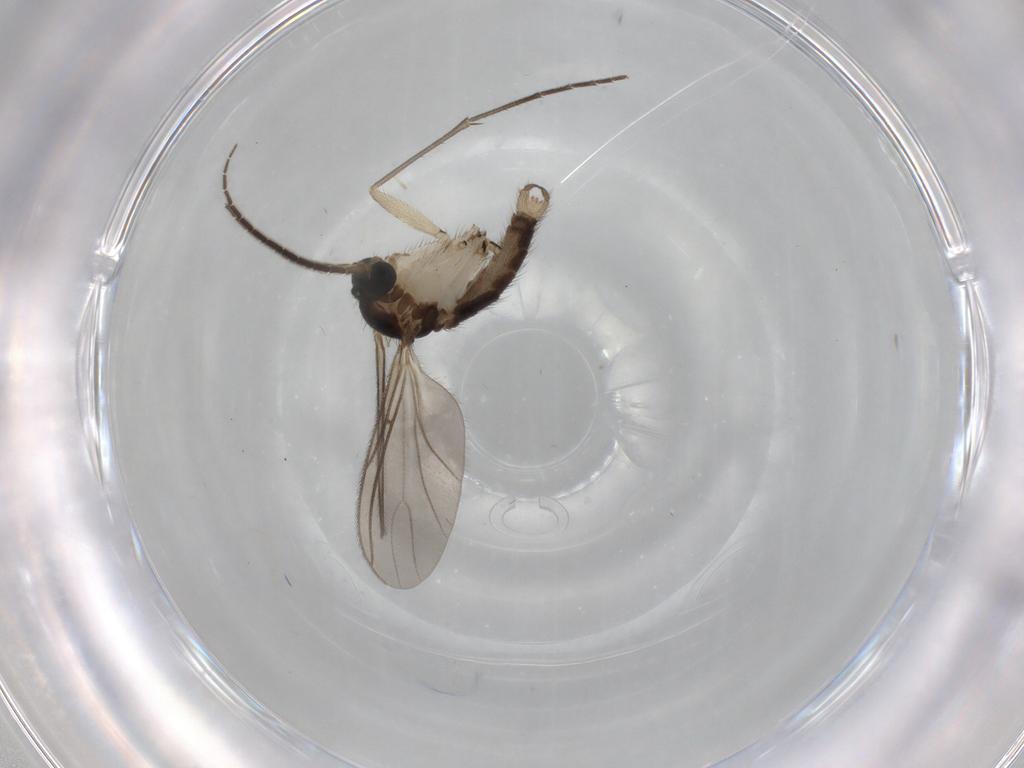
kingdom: Animalia
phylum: Arthropoda
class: Insecta
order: Diptera
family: Sciaridae
